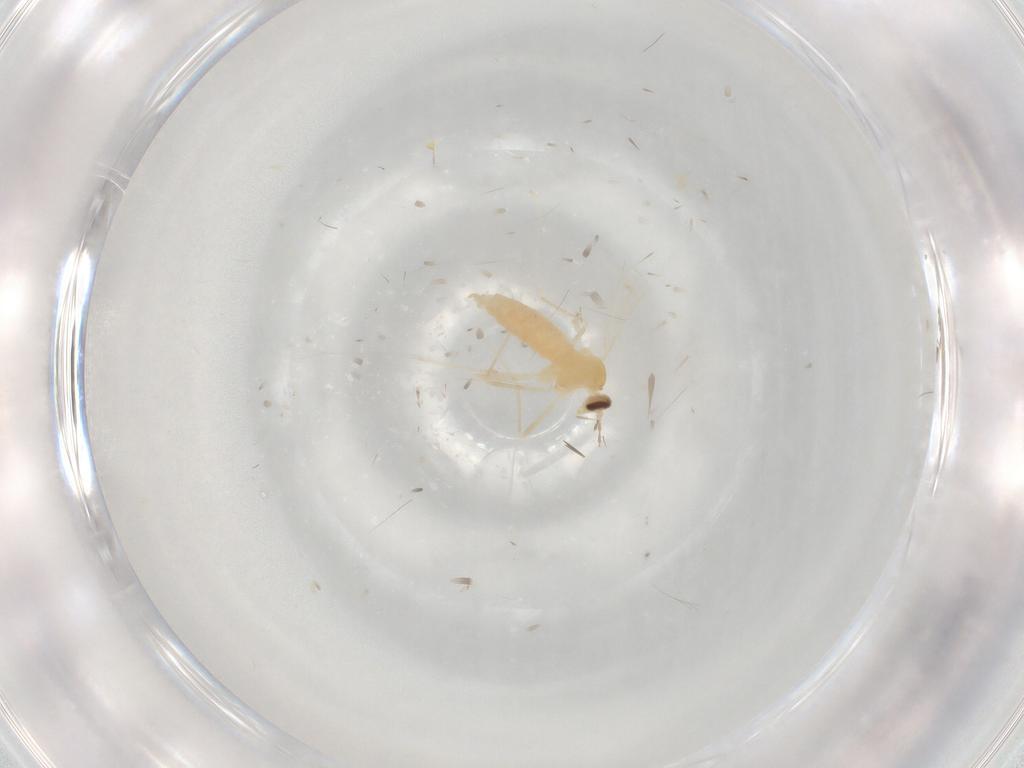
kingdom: Animalia
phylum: Arthropoda
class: Insecta
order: Diptera
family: Cecidomyiidae
